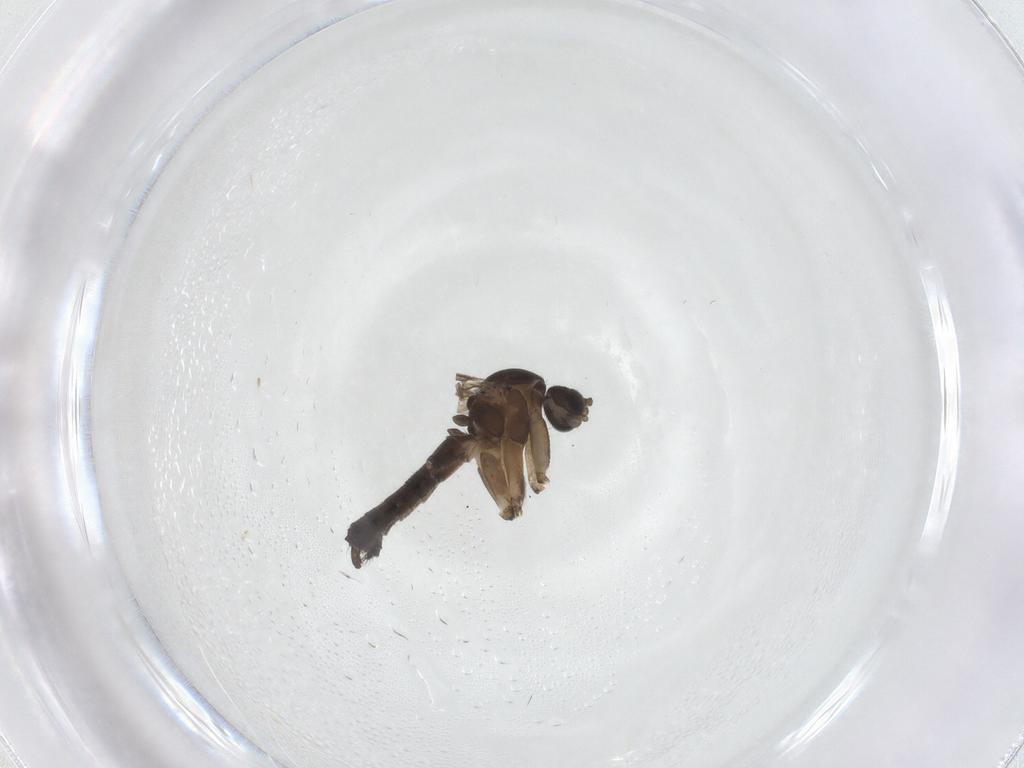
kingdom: Animalia
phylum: Arthropoda
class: Insecta
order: Diptera
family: Mycetophilidae
